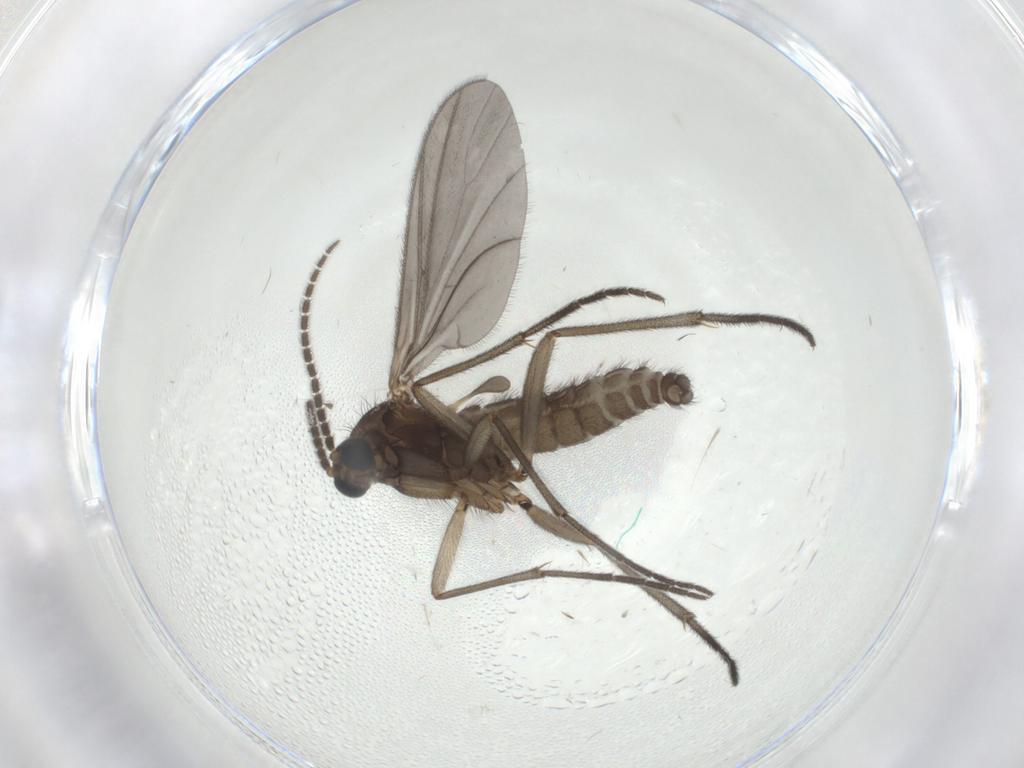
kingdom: Animalia
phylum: Arthropoda
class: Insecta
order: Diptera
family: Sciaridae
